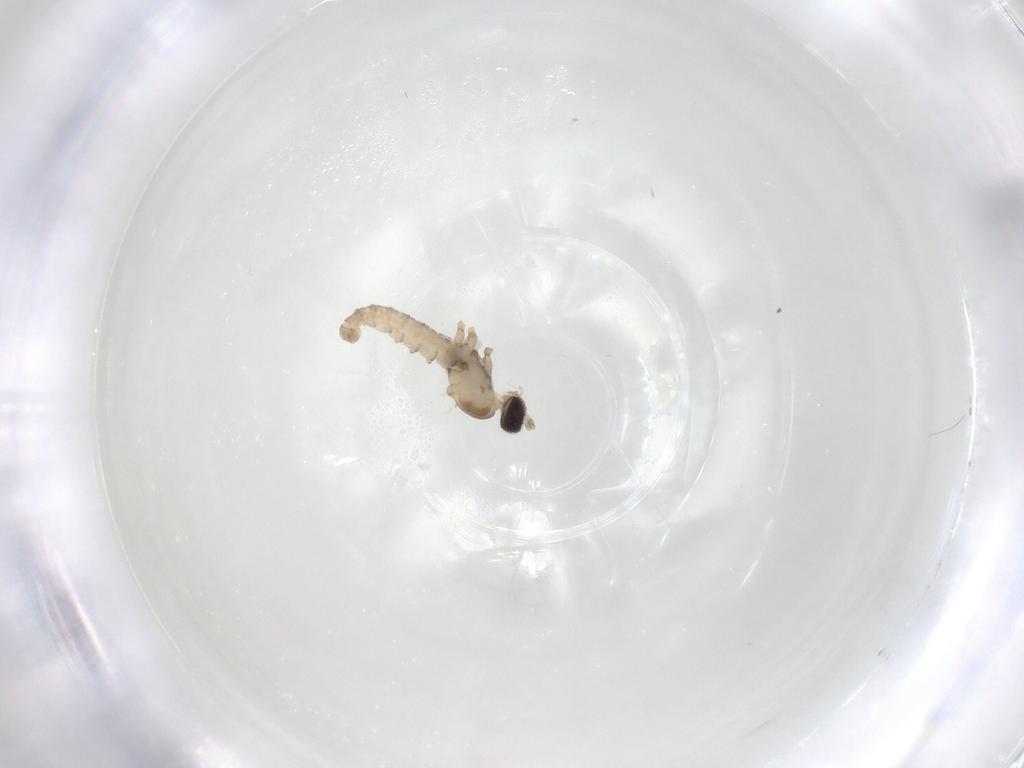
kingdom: Animalia
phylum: Arthropoda
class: Insecta
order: Diptera
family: Cecidomyiidae
